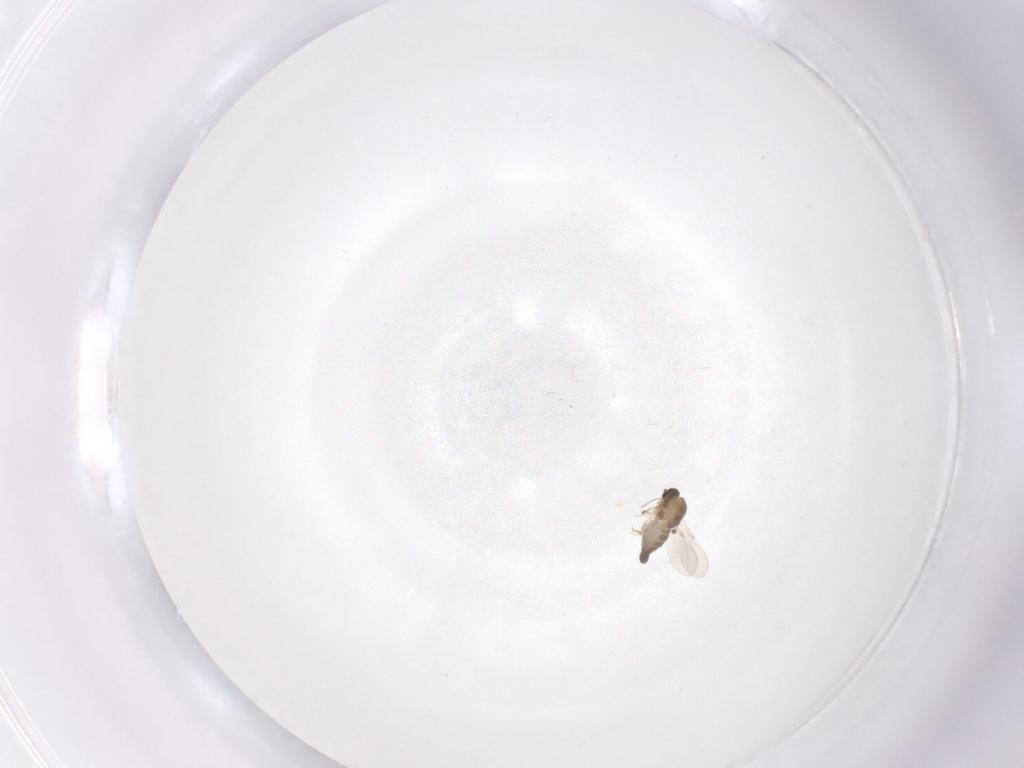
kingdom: Animalia
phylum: Arthropoda
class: Insecta
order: Diptera
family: Ceratopogonidae
